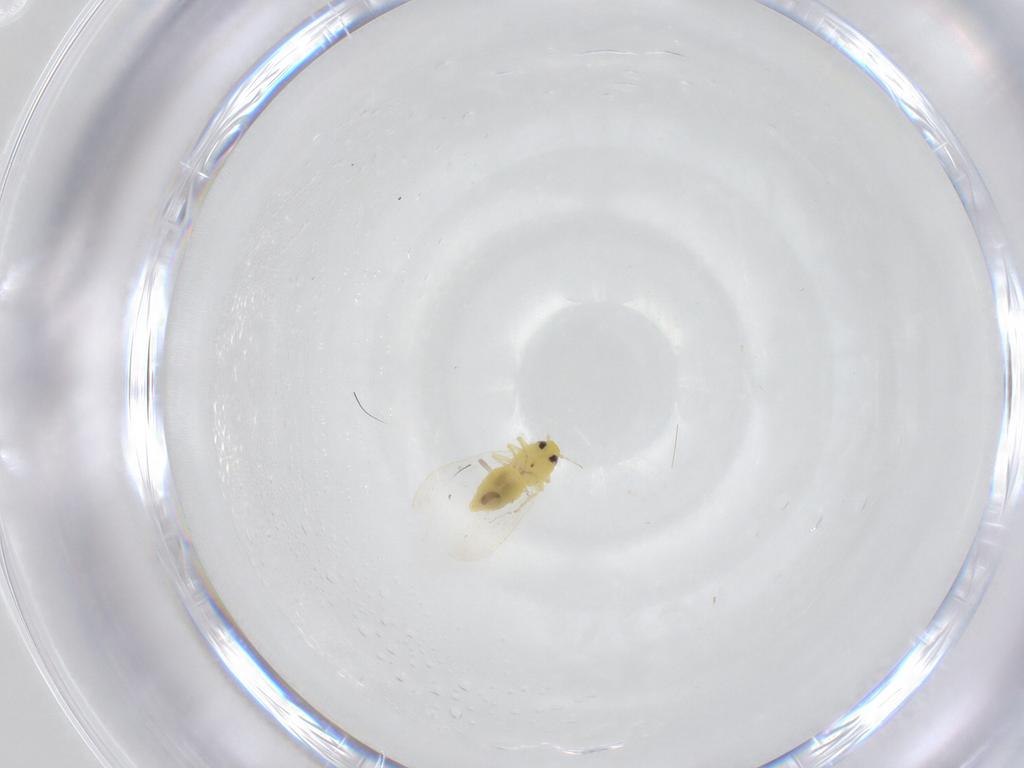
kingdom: Animalia
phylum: Arthropoda
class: Insecta
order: Hemiptera
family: Aleyrodidae
